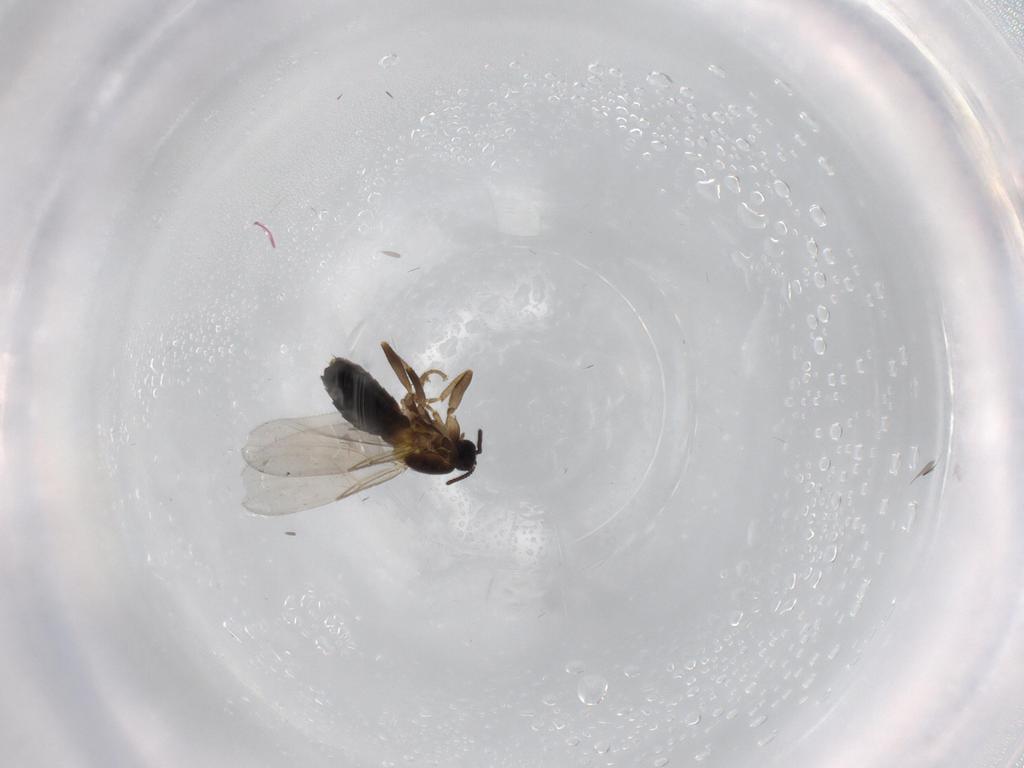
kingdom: Animalia
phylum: Arthropoda
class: Insecta
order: Diptera
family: Scatopsidae
